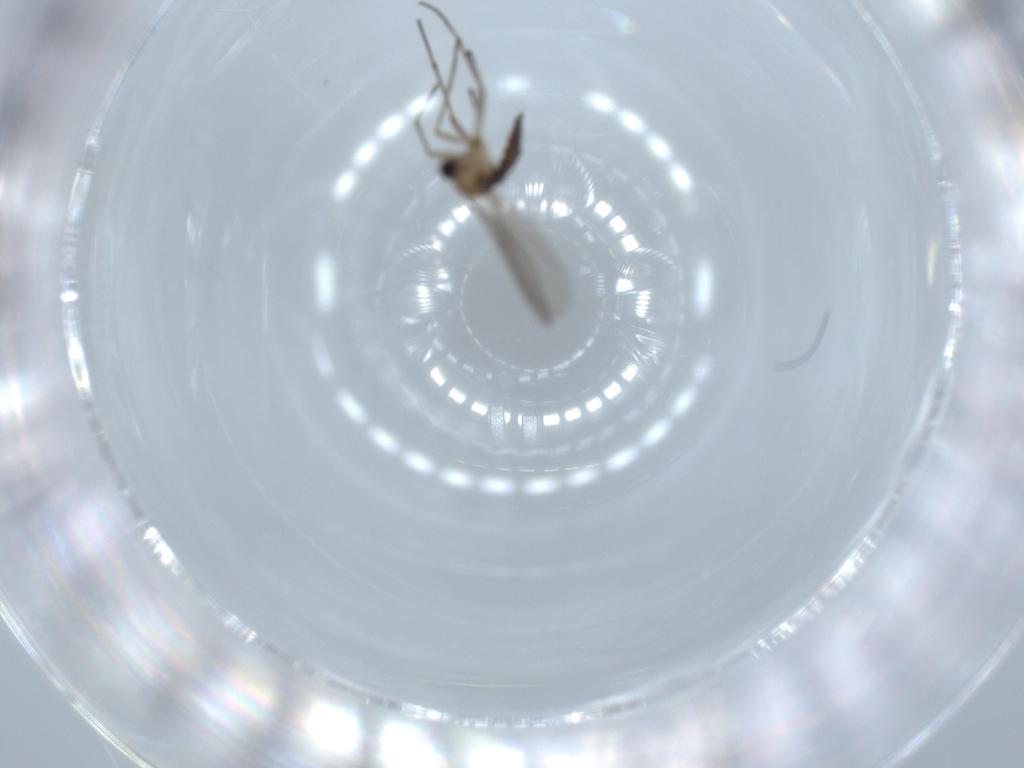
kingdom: Animalia
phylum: Arthropoda
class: Insecta
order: Diptera
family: Sciaridae
